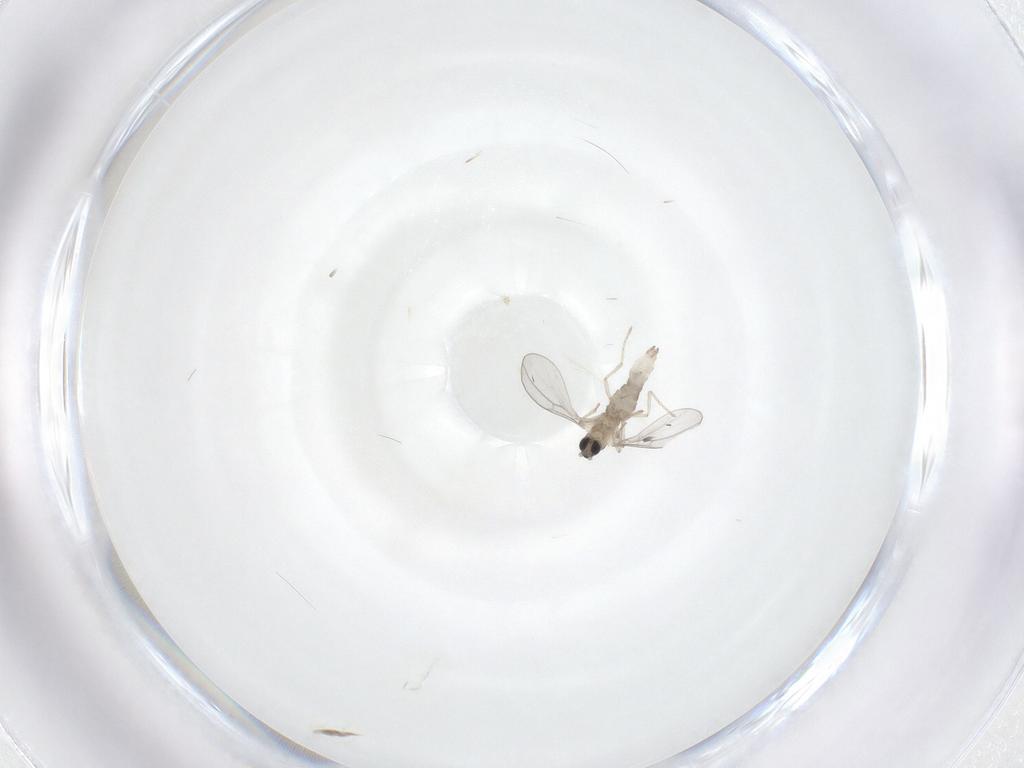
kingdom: Animalia
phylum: Arthropoda
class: Insecta
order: Diptera
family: Cecidomyiidae
